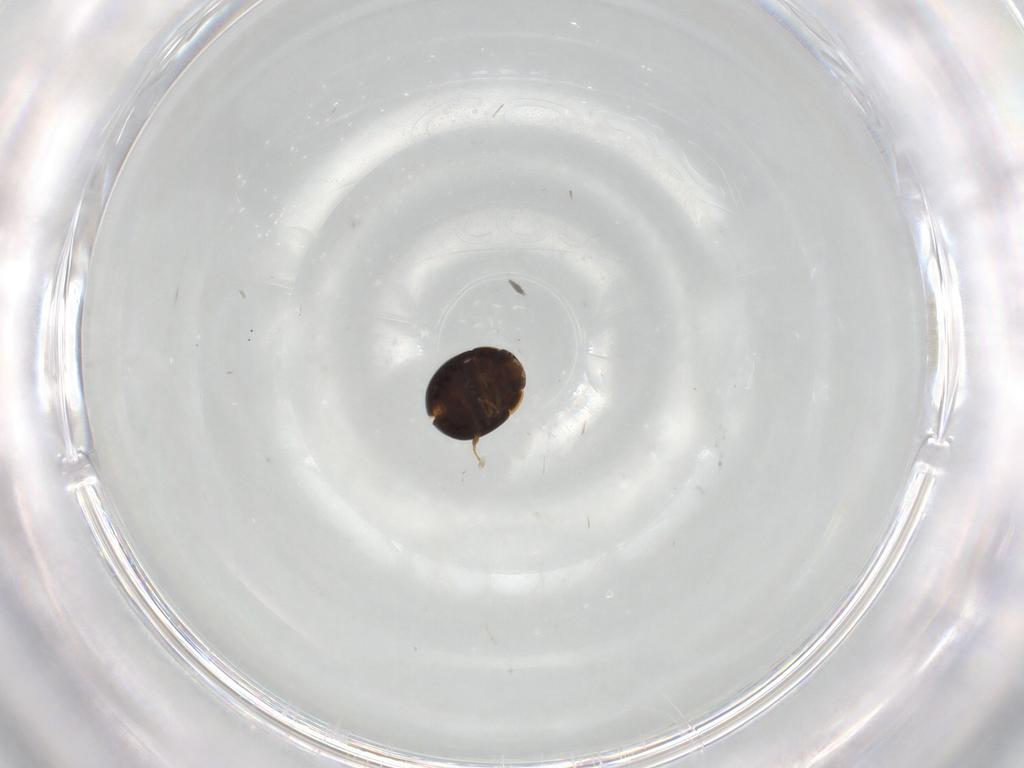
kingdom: Animalia
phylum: Arthropoda
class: Insecta
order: Coleoptera
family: Leiodidae
